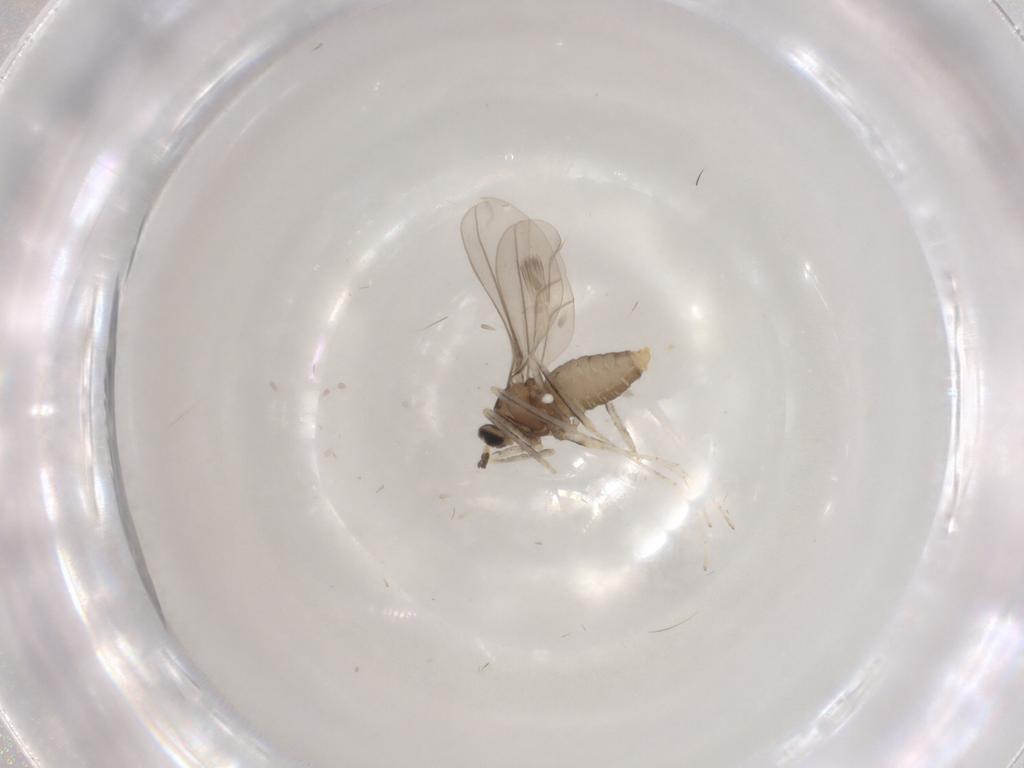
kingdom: Animalia
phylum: Arthropoda
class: Insecta
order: Diptera
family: Cecidomyiidae
